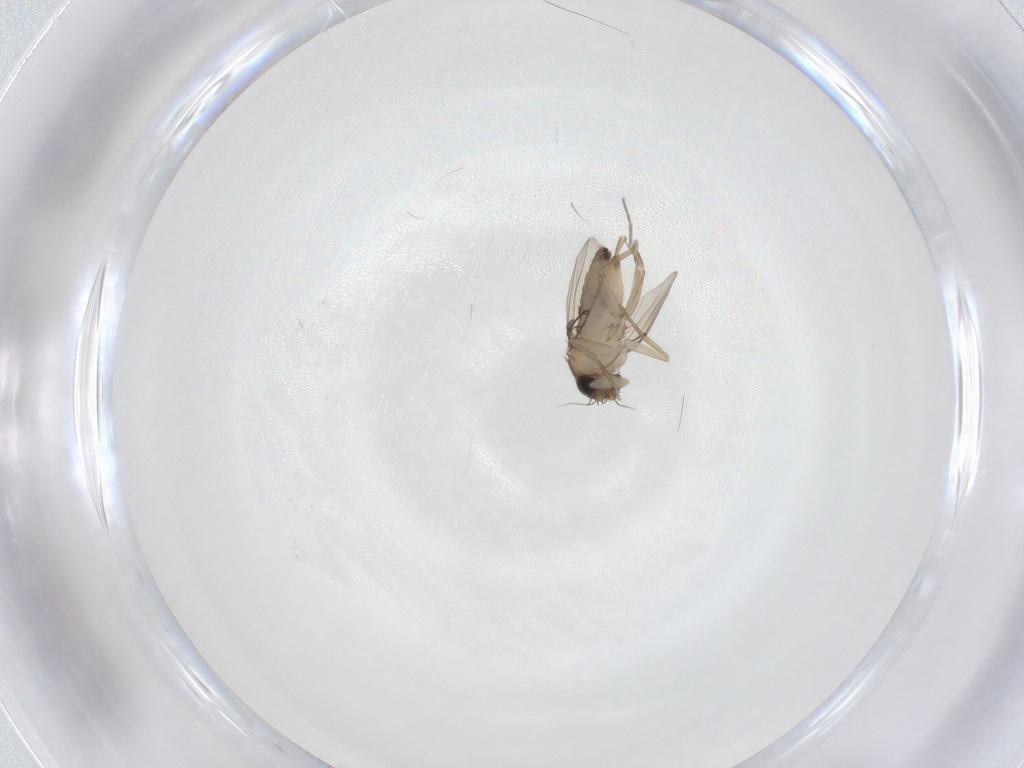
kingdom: Animalia
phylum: Arthropoda
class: Insecta
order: Diptera
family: Phoridae
